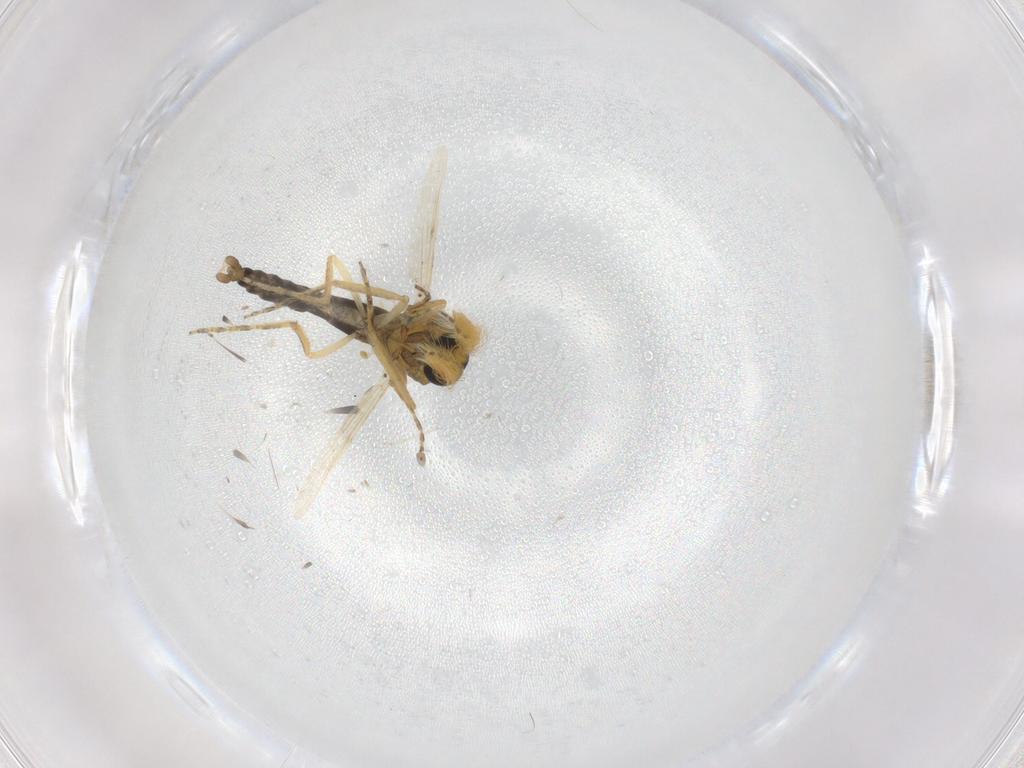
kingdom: Animalia
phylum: Arthropoda
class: Insecta
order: Diptera
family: Ceratopogonidae
